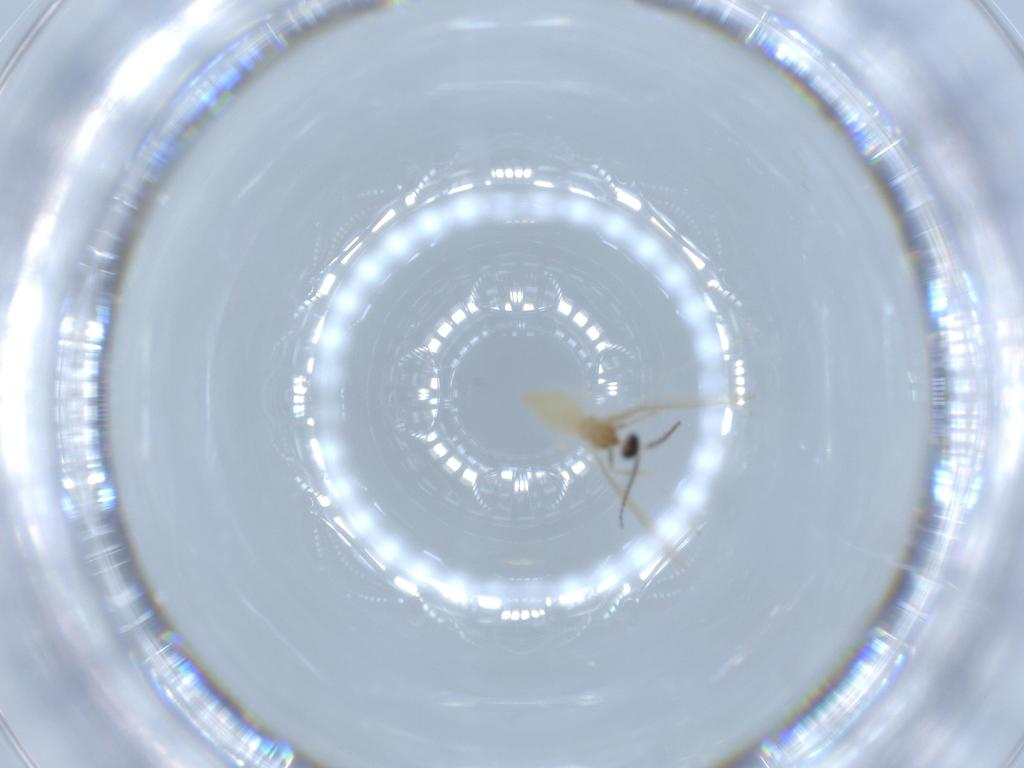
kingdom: Animalia
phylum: Arthropoda
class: Insecta
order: Diptera
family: Cecidomyiidae
